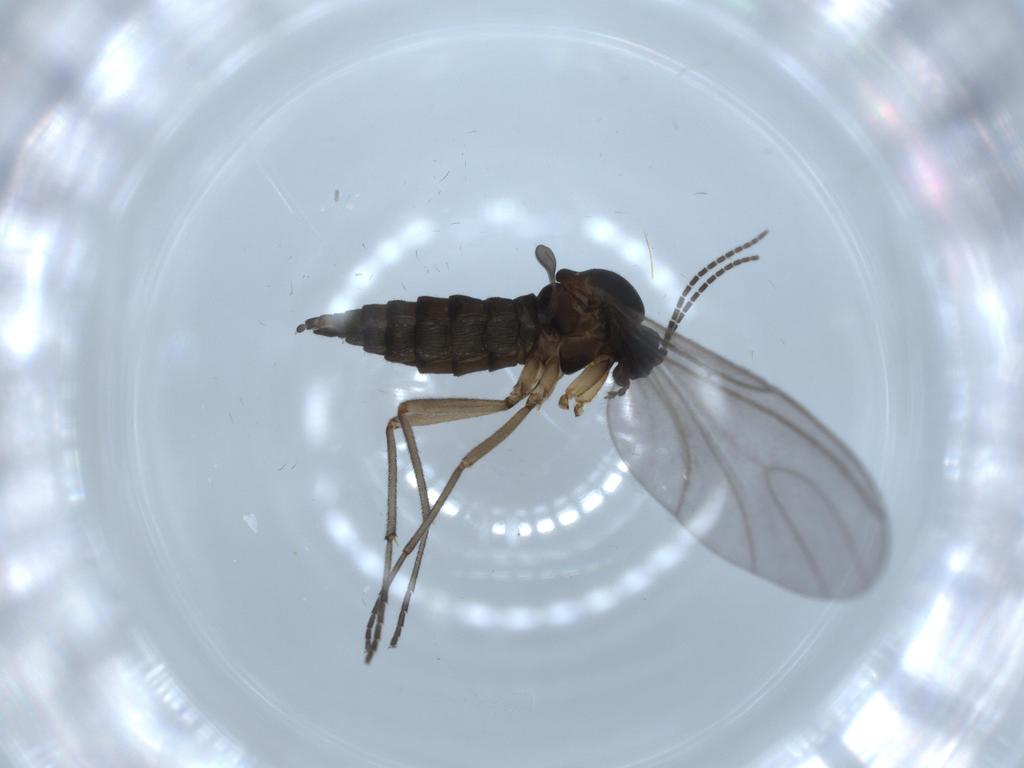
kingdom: Animalia
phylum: Arthropoda
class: Insecta
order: Diptera
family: Sciaridae
